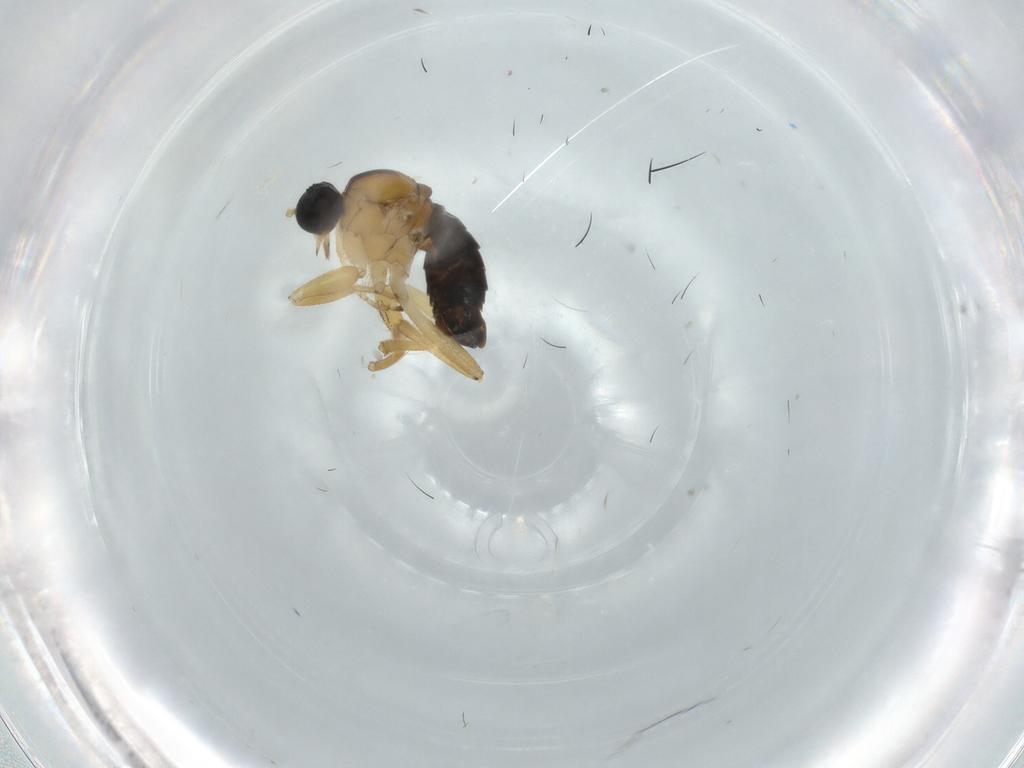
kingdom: Animalia
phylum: Arthropoda
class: Insecta
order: Diptera
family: Hybotidae
